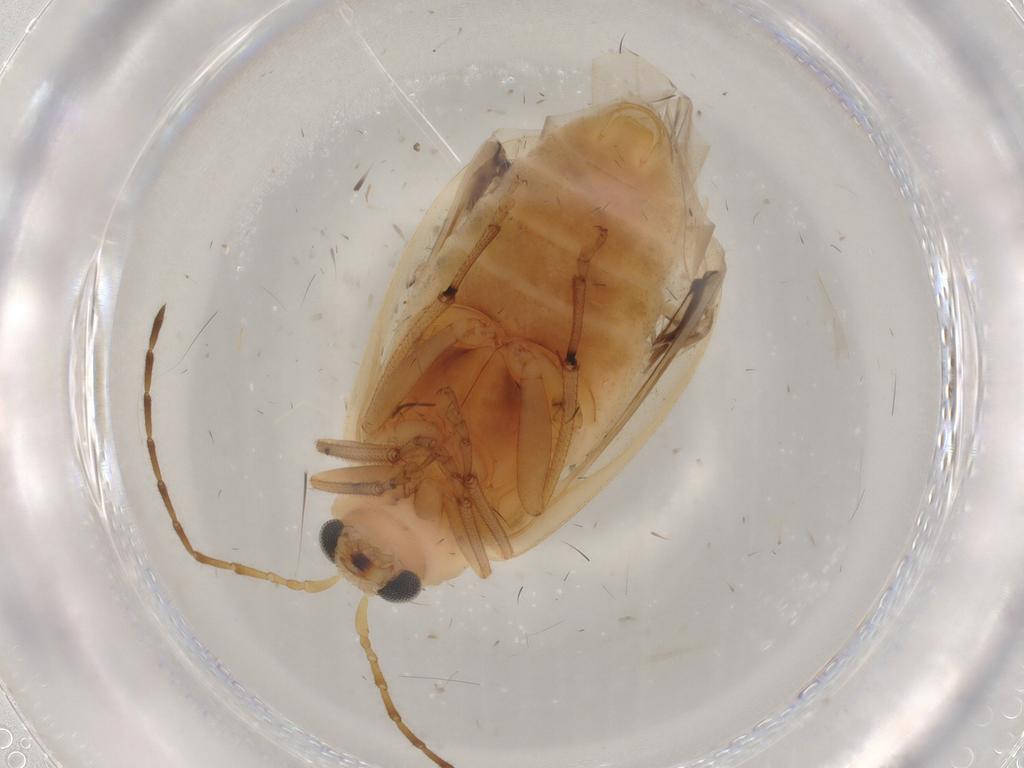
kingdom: Animalia
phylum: Arthropoda
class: Insecta
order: Coleoptera
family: Chrysomelidae
